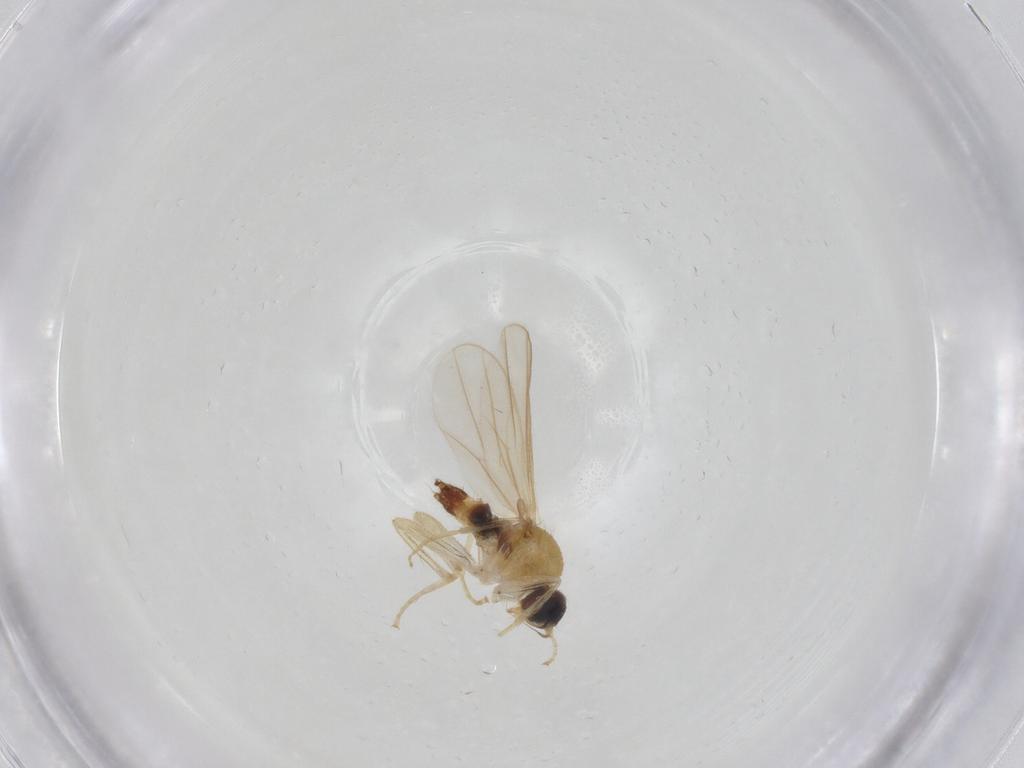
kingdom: Animalia
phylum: Arthropoda
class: Insecta
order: Diptera
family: Hybotidae
